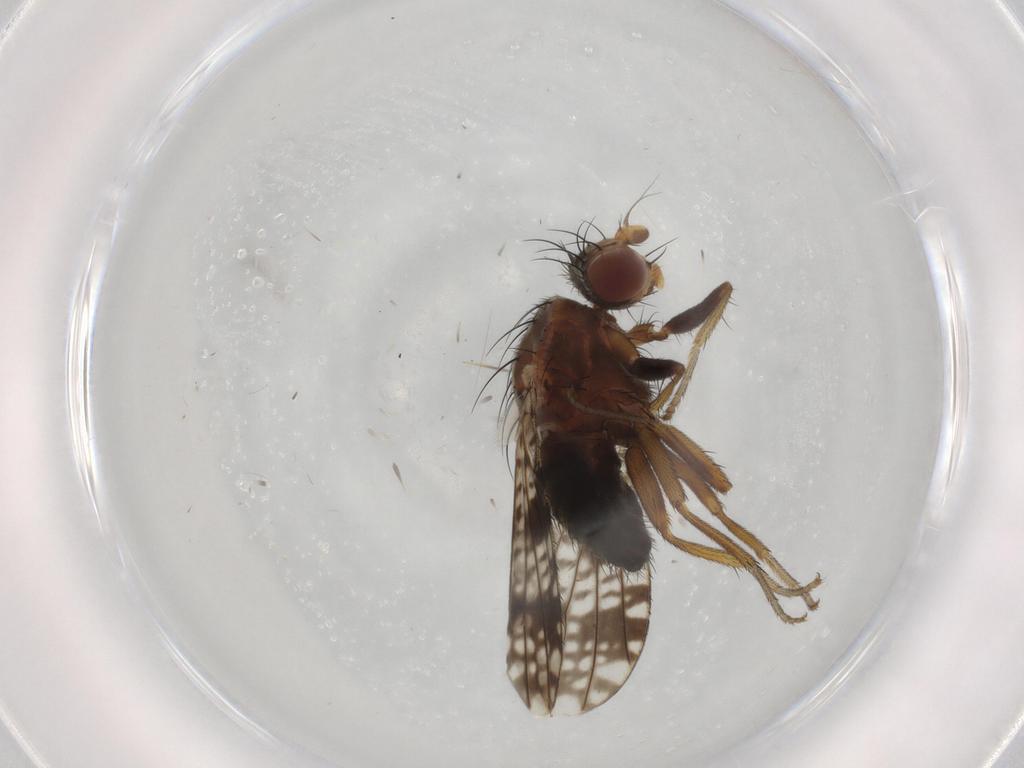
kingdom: Animalia
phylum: Arthropoda
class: Insecta
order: Diptera
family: Tephritidae
